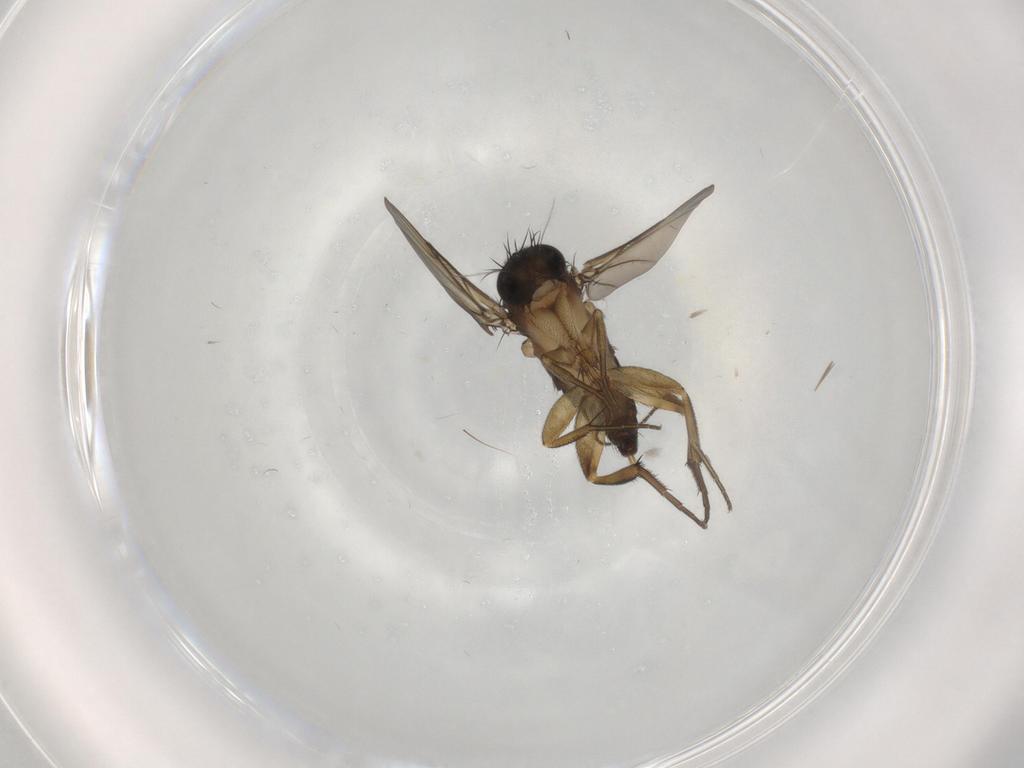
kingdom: Animalia
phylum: Arthropoda
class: Insecta
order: Diptera
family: Phoridae
